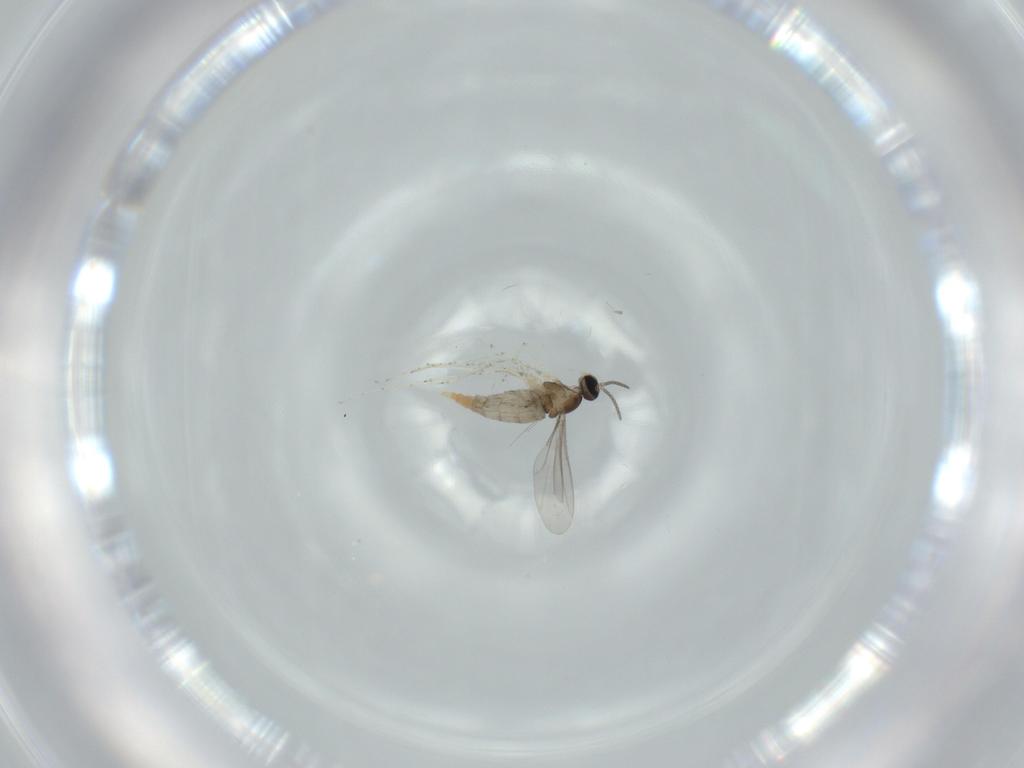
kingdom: Animalia
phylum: Arthropoda
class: Insecta
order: Diptera
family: Cecidomyiidae
